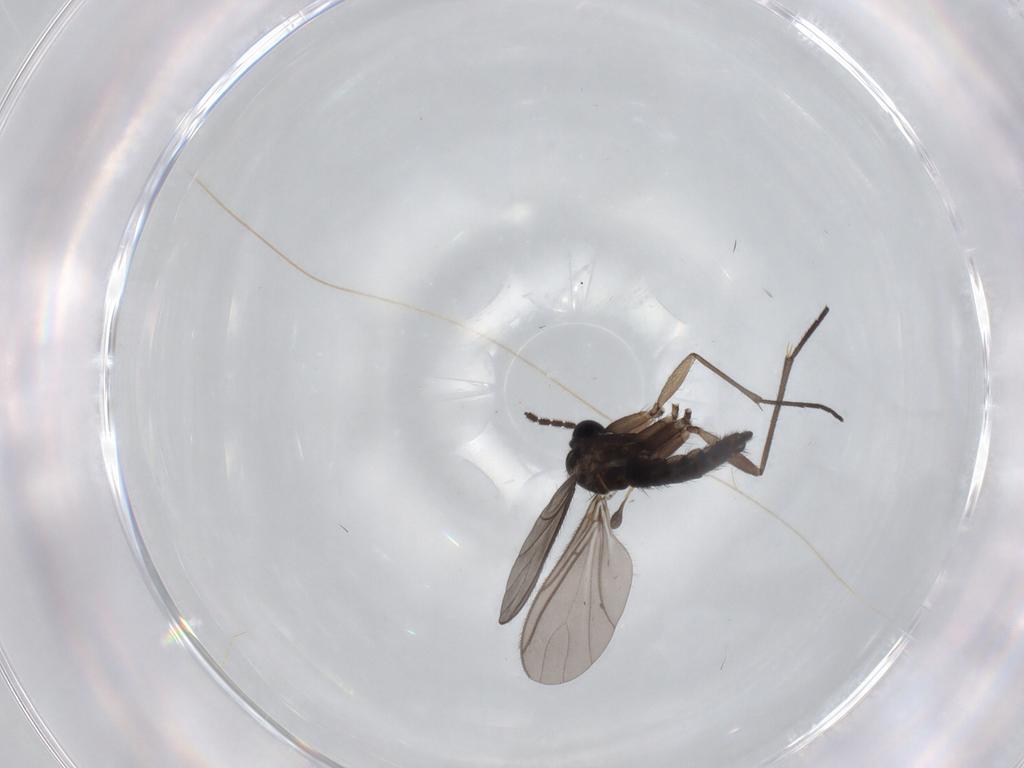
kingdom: Animalia
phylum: Arthropoda
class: Insecta
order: Diptera
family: Sciaridae
